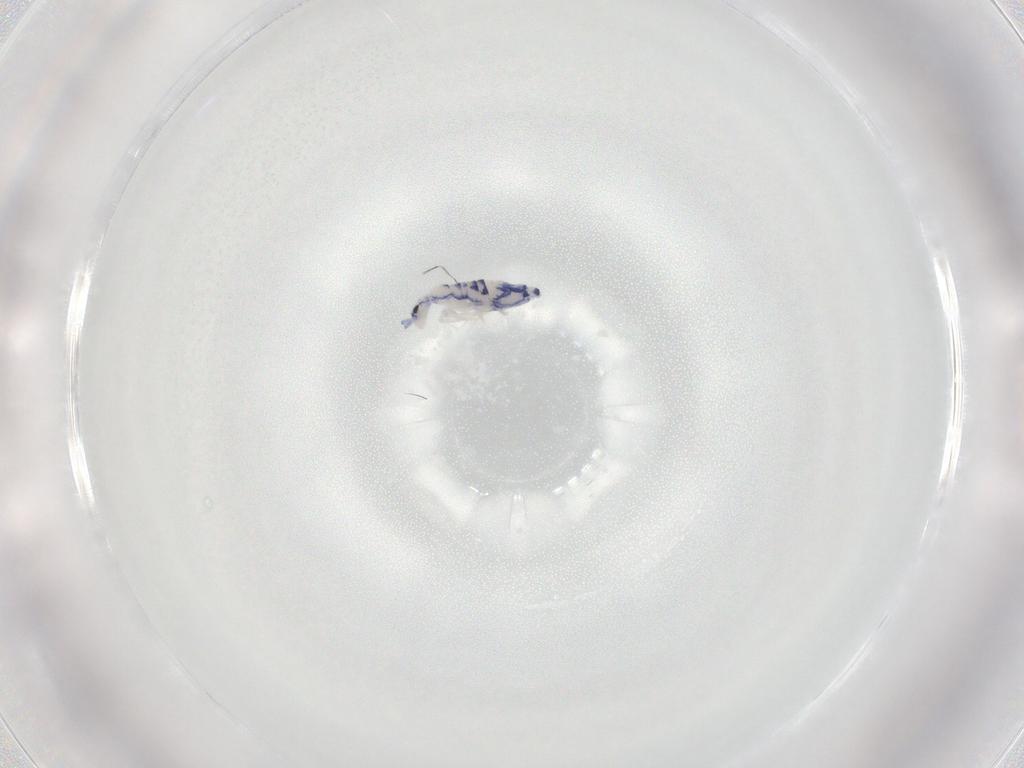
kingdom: Animalia
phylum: Arthropoda
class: Collembola
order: Entomobryomorpha
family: Entomobryidae
